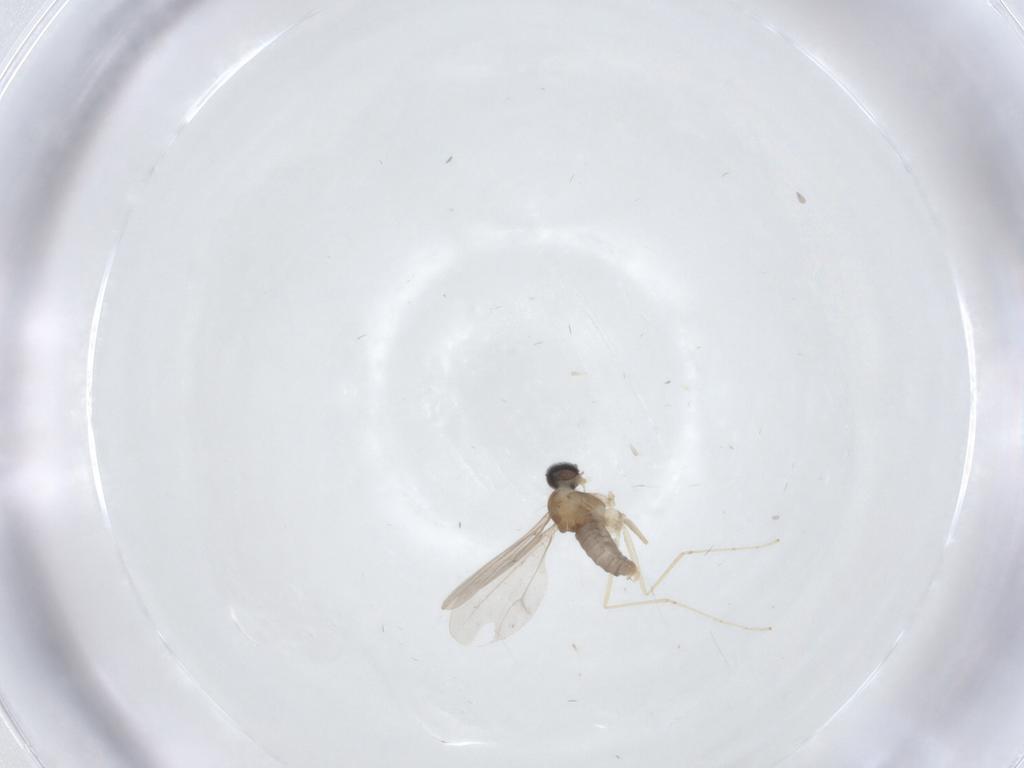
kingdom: Animalia
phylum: Arthropoda
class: Insecta
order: Diptera
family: Cecidomyiidae
